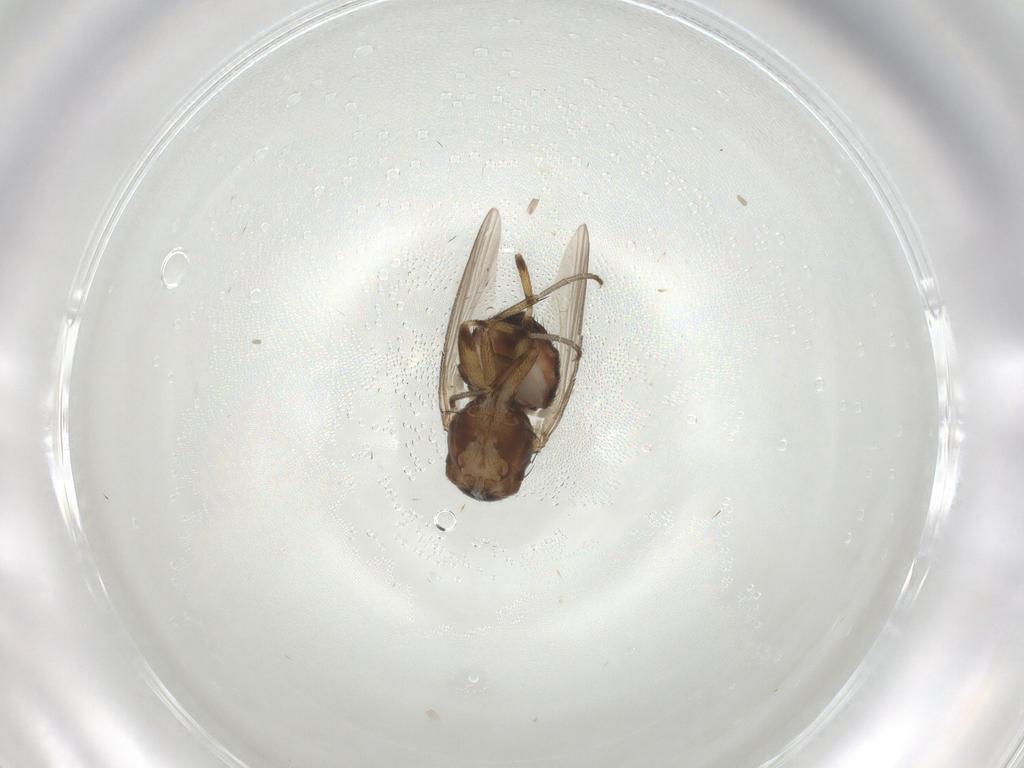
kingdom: Animalia
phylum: Arthropoda
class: Insecta
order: Diptera
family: Heleomyzidae
